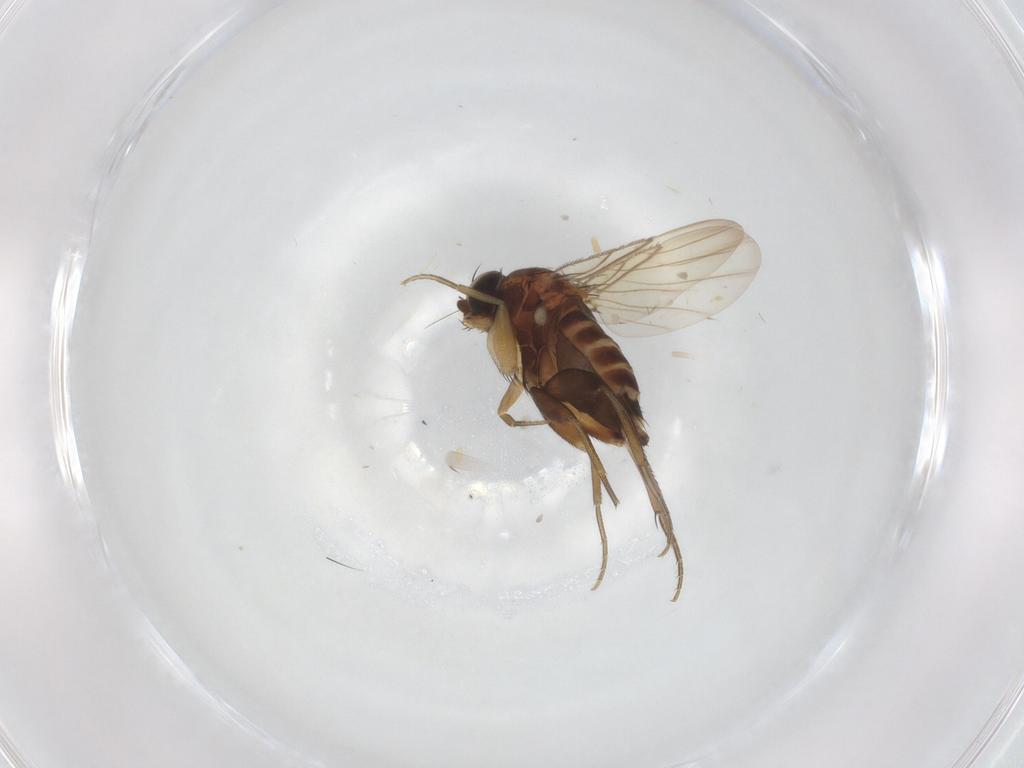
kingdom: Animalia
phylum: Arthropoda
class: Insecta
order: Diptera
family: Phoridae
